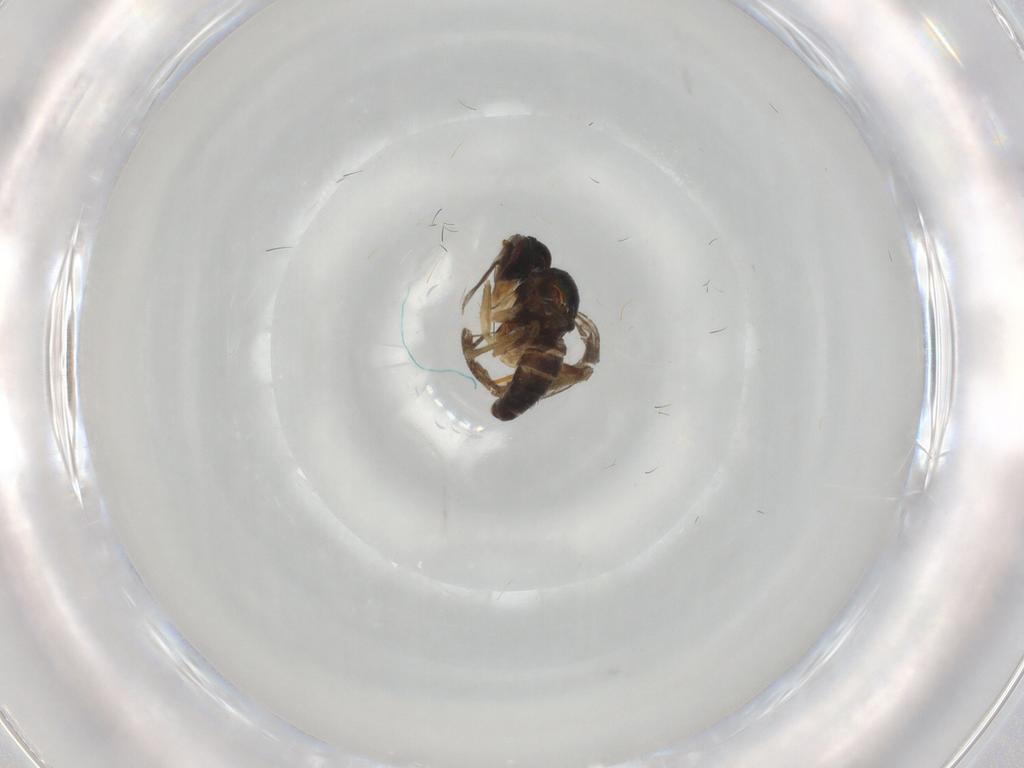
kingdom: Animalia
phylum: Arthropoda
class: Insecta
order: Diptera
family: Dolichopodidae
